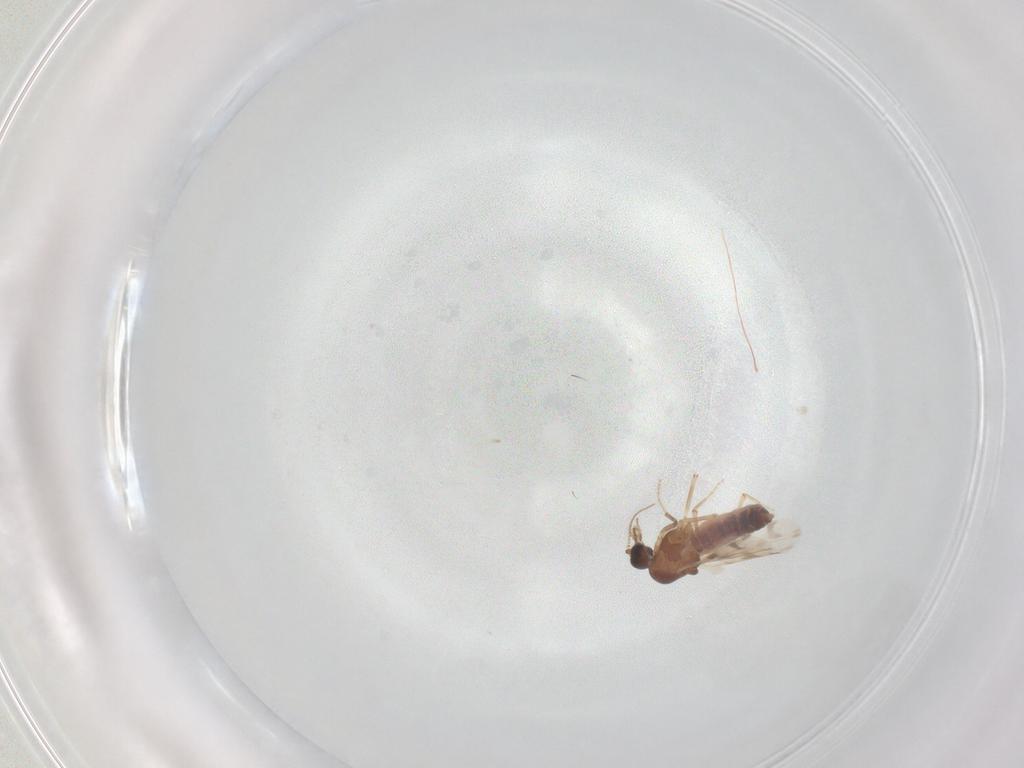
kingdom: Animalia
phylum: Arthropoda
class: Insecta
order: Diptera
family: Ceratopogonidae
